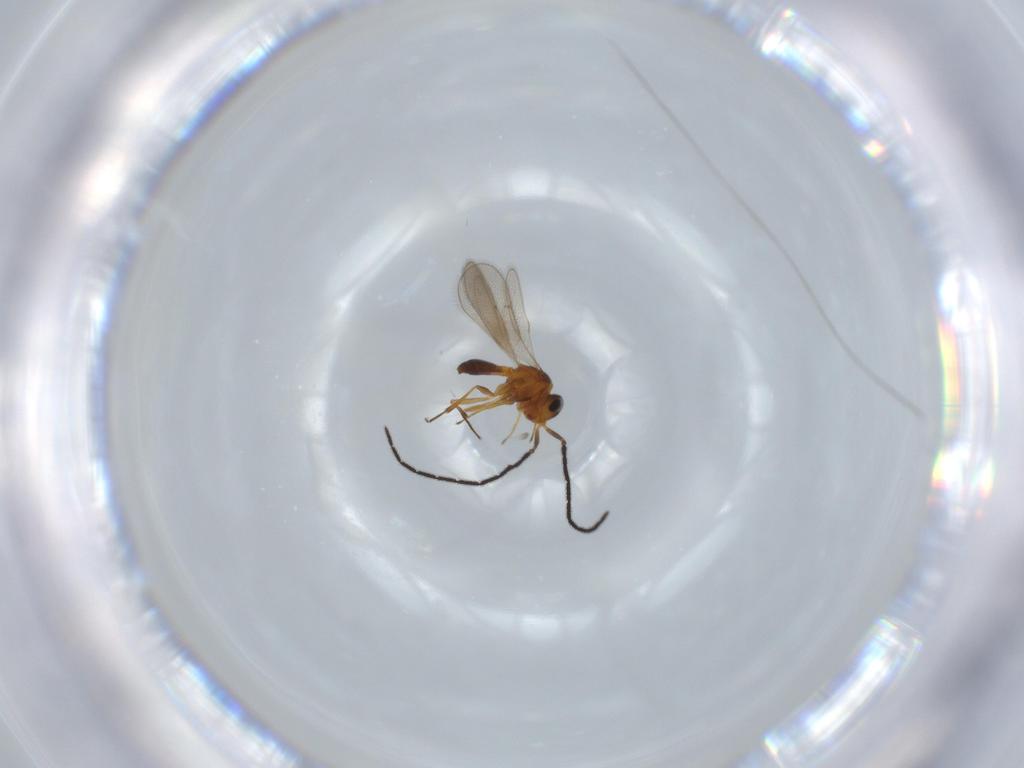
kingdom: Animalia
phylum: Arthropoda
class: Insecta
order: Hymenoptera
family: Scelionidae
